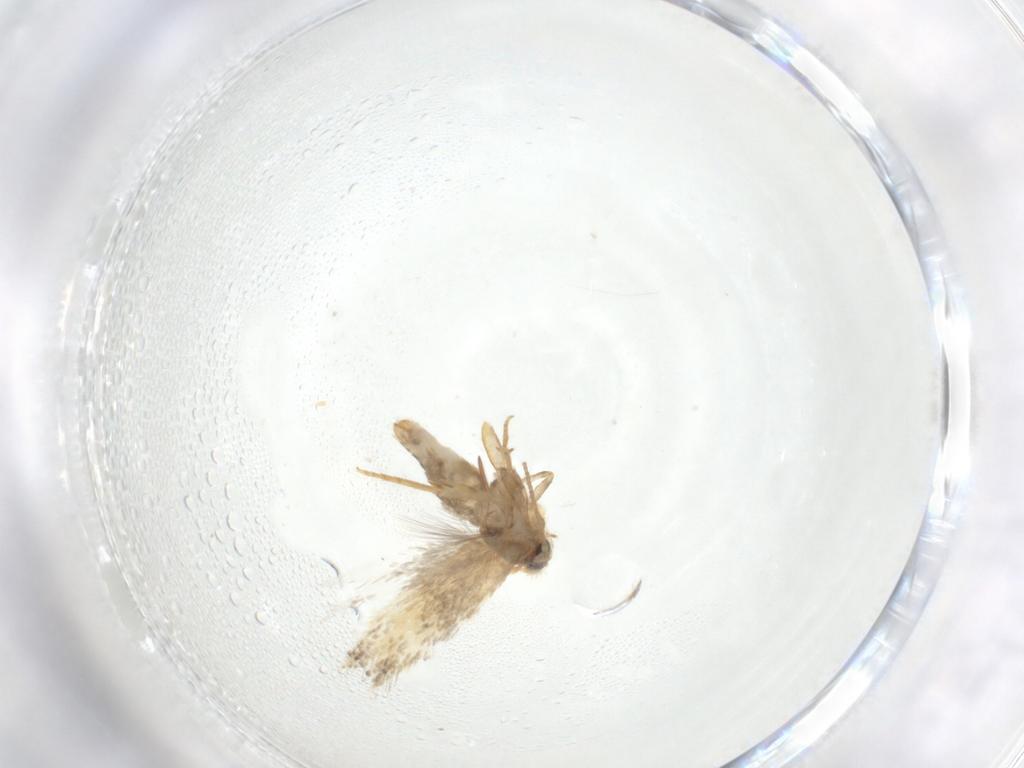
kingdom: Animalia
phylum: Arthropoda
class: Insecta
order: Lepidoptera
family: Nepticulidae
